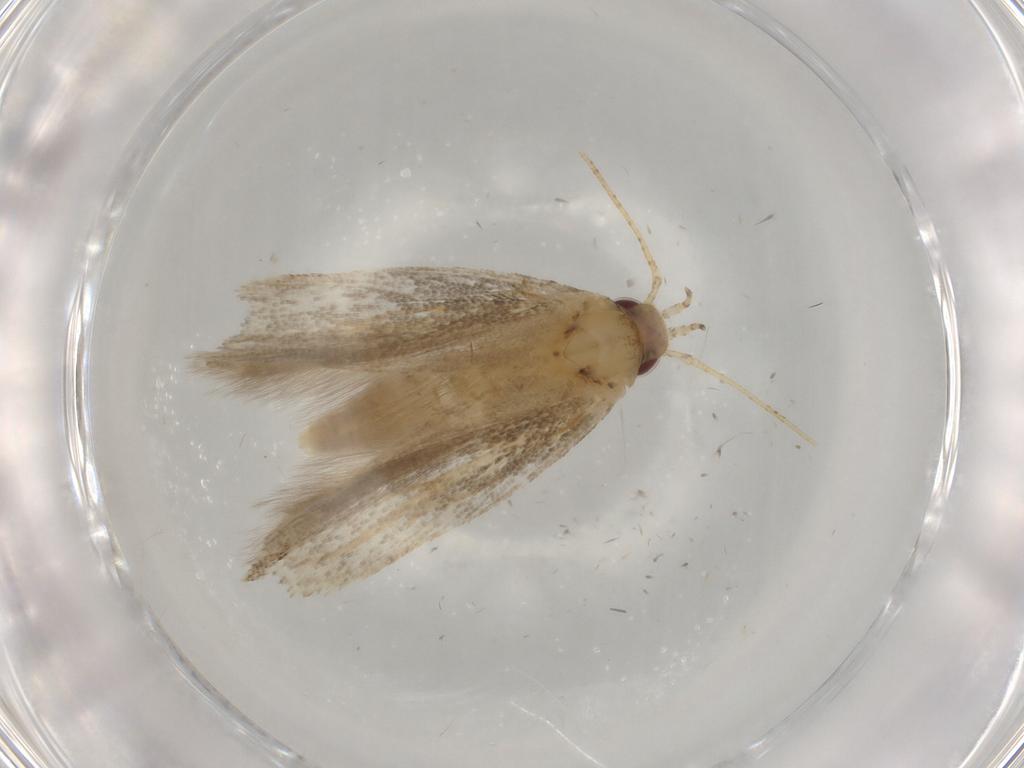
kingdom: Animalia
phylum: Arthropoda
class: Insecta
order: Lepidoptera
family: Gelechiidae
